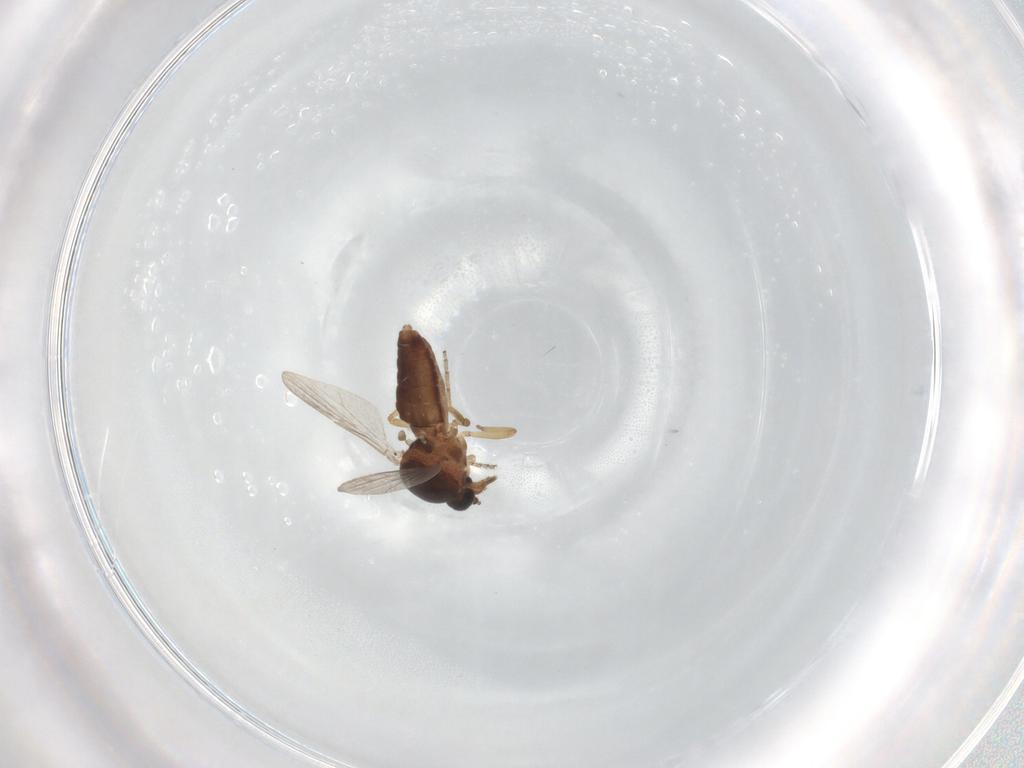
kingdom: Animalia
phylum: Arthropoda
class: Insecta
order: Diptera
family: Ceratopogonidae
